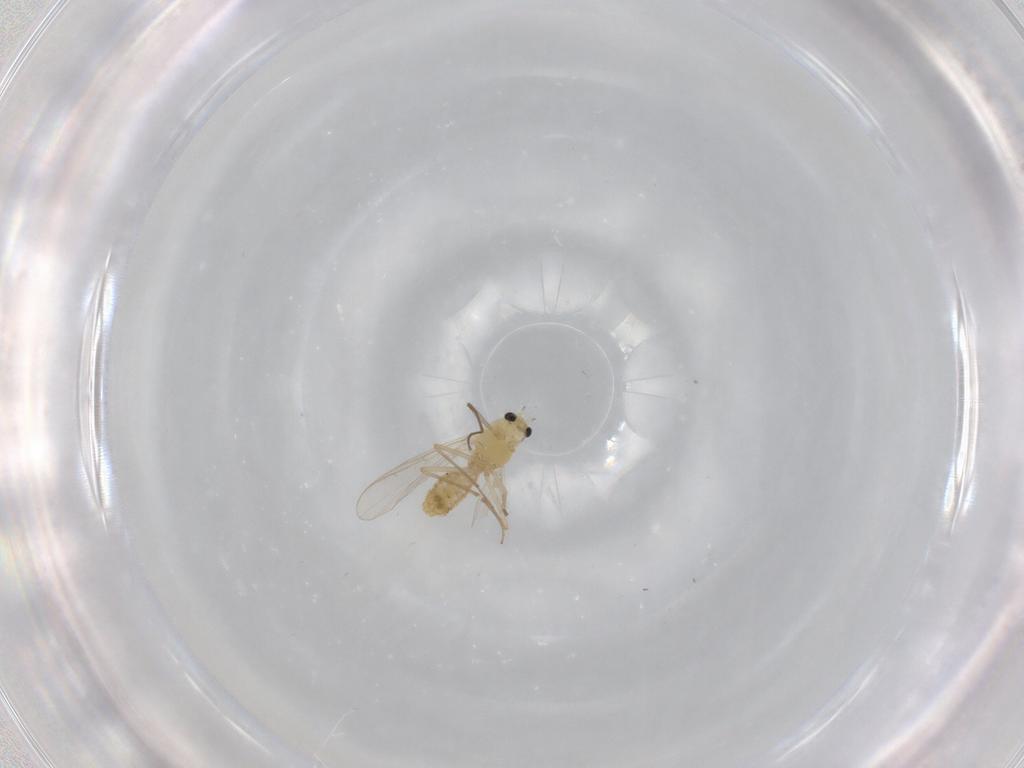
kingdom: Animalia
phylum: Arthropoda
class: Insecta
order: Diptera
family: Chironomidae
